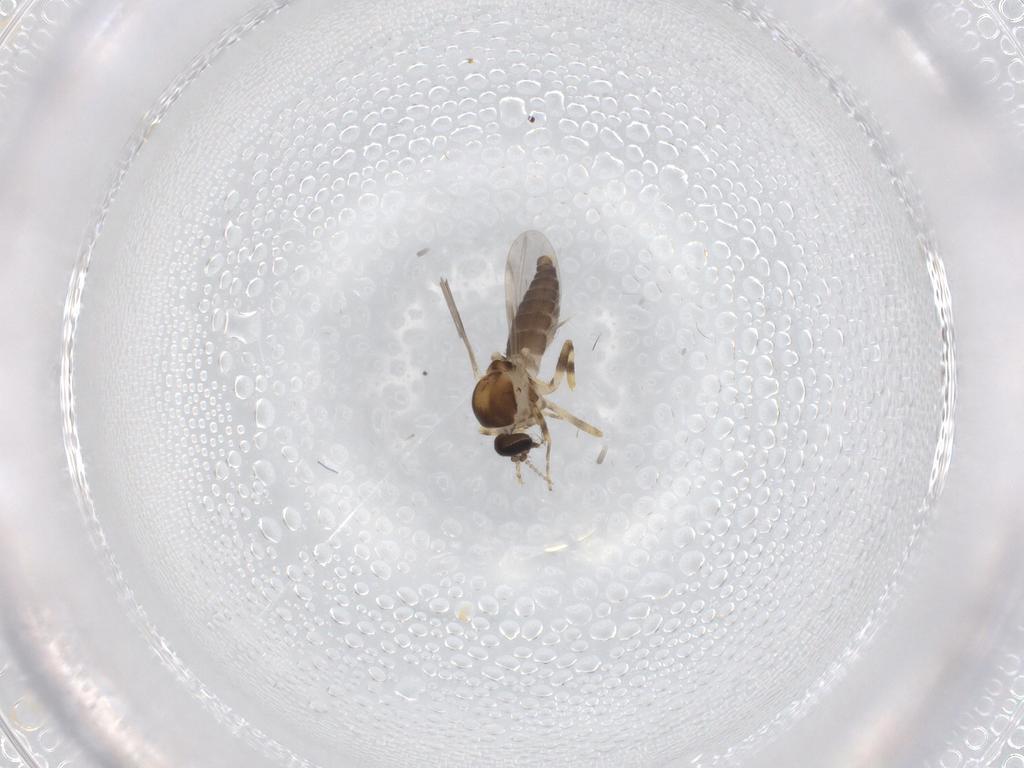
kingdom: Animalia
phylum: Arthropoda
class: Insecta
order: Diptera
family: Ceratopogonidae
